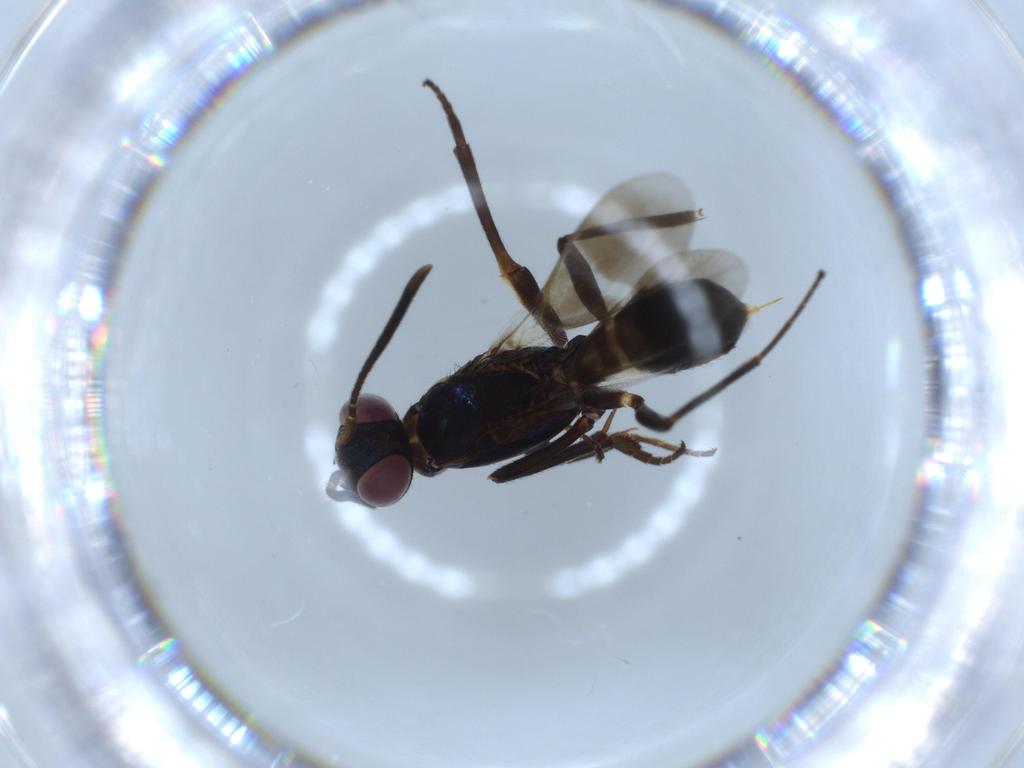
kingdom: Animalia
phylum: Arthropoda
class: Insecta
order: Hymenoptera
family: Eupelmidae
